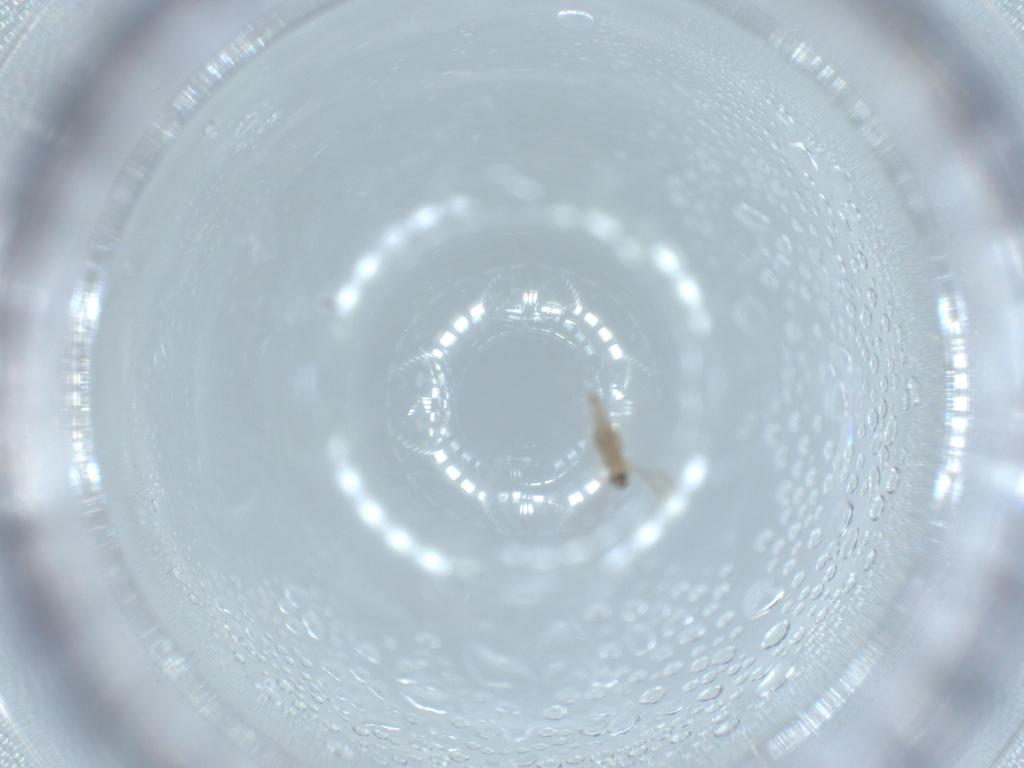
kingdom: Animalia
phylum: Arthropoda
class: Insecta
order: Diptera
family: Cecidomyiidae
